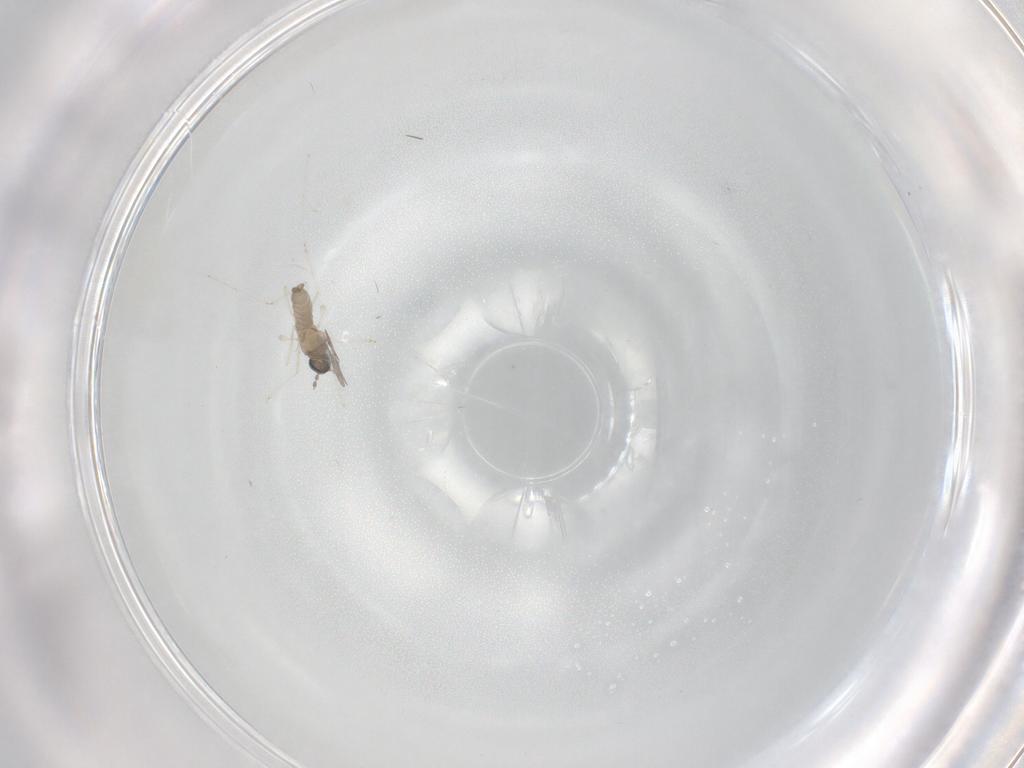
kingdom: Animalia
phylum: Arthropoda
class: Insecta
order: Diptera
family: Cecidomyiidae
